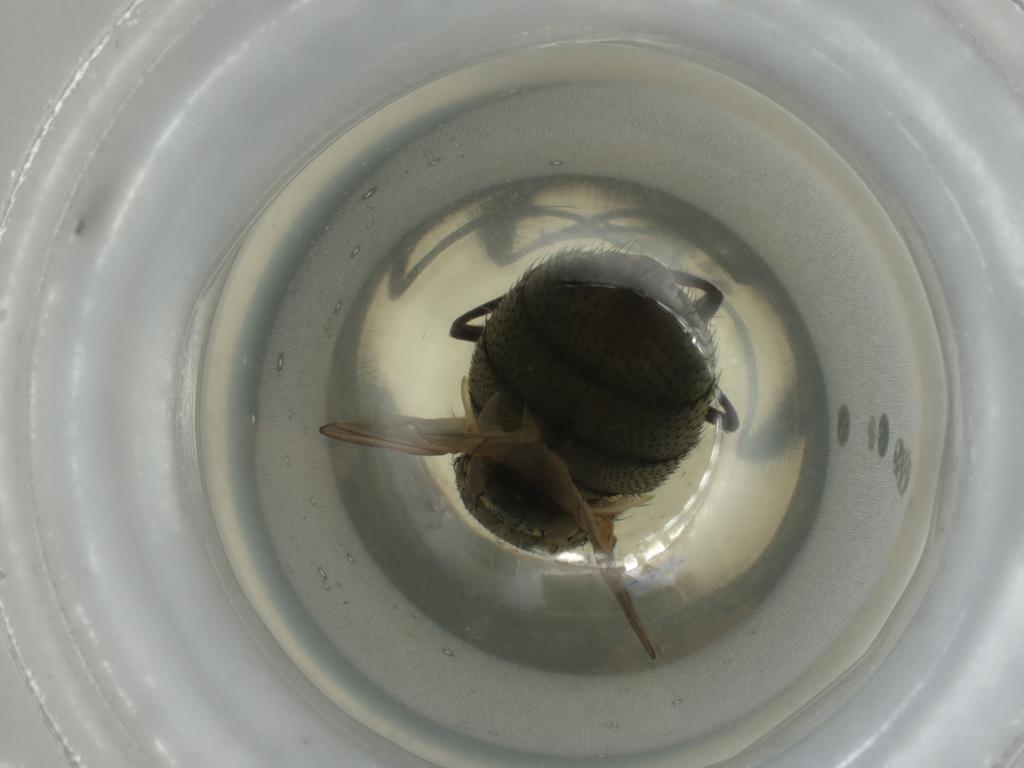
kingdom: Animalia
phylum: Arthropoda
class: Insecta
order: Diptera
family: Muscidae
